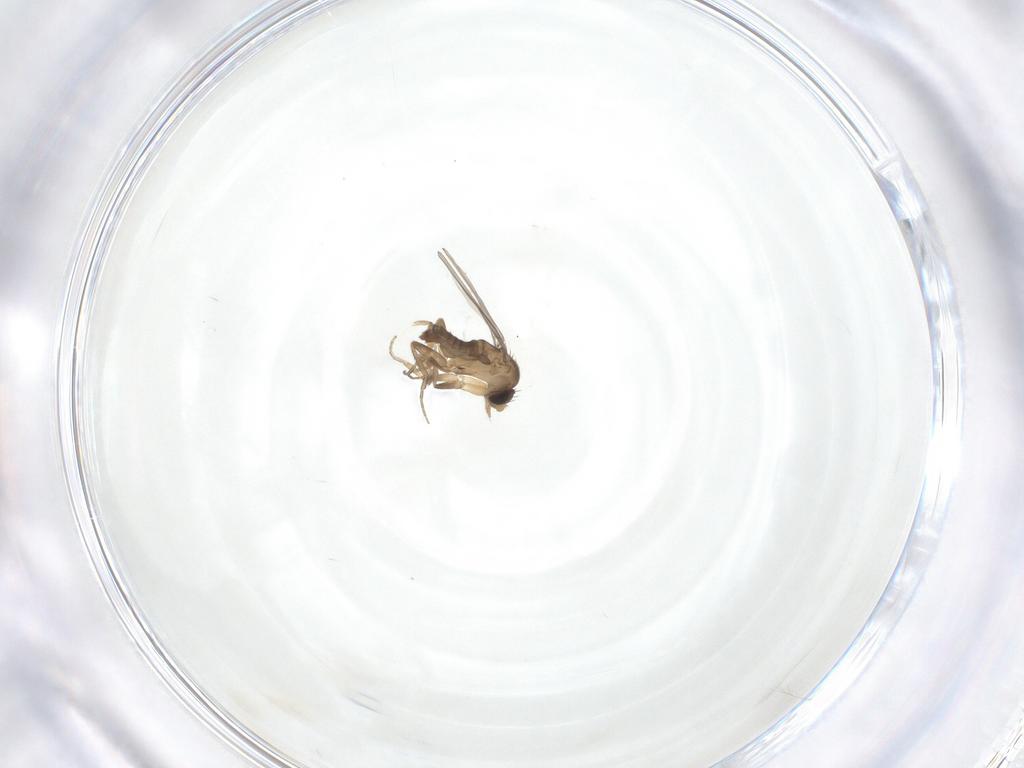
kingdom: Animalia
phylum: Arthropoda
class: Insecta
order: Diptera
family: Phoridae
